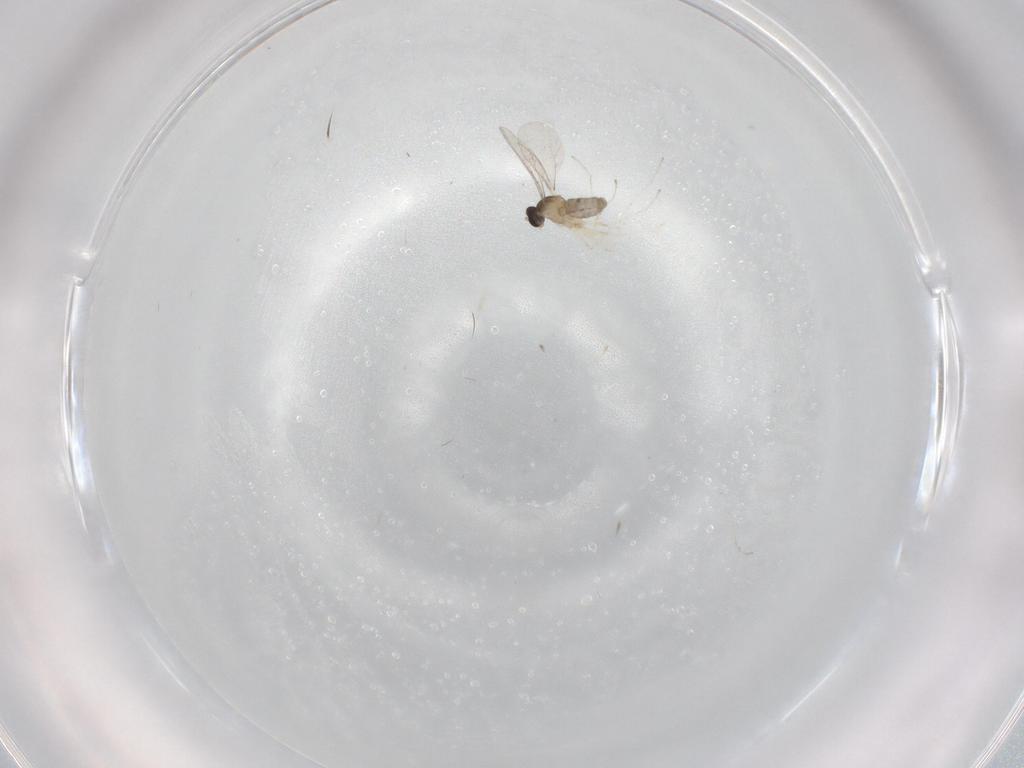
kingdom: Animalia
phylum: Arthropoda
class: Insecta
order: Diptera
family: Cecidomyiidae
